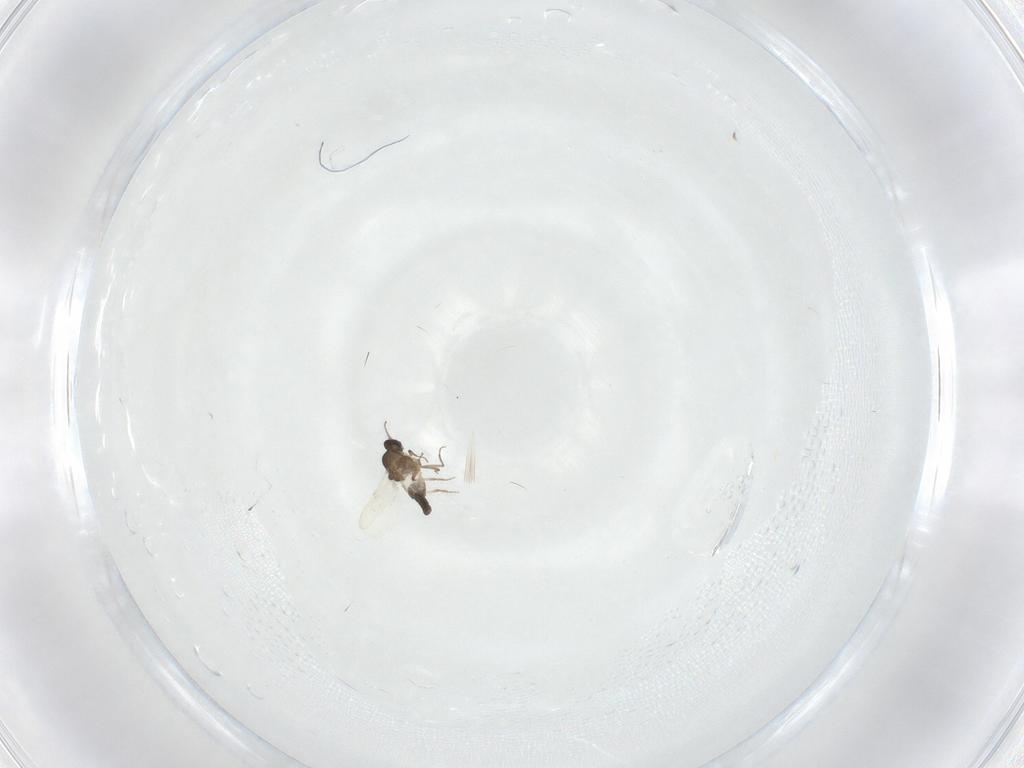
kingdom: Animalia
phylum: Arthropoda
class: Insecta
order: Diptera
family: Ceratopogonidae
